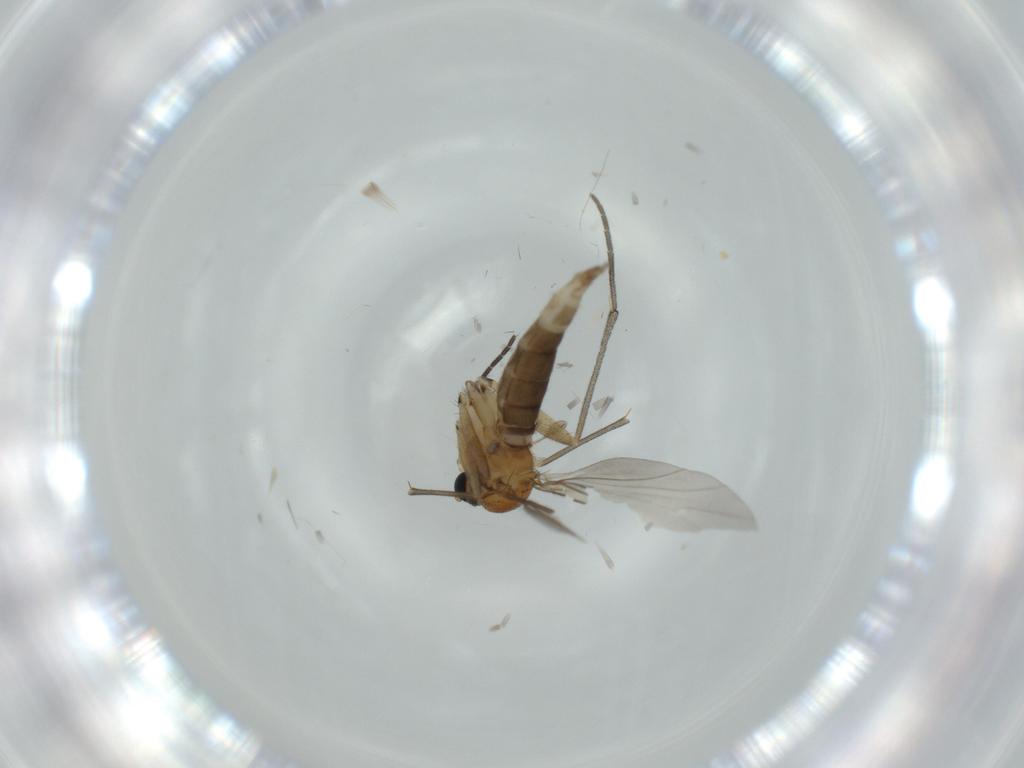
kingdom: Animalia
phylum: Arthropoda
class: Insecta
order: Diptera
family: Sciaridae
